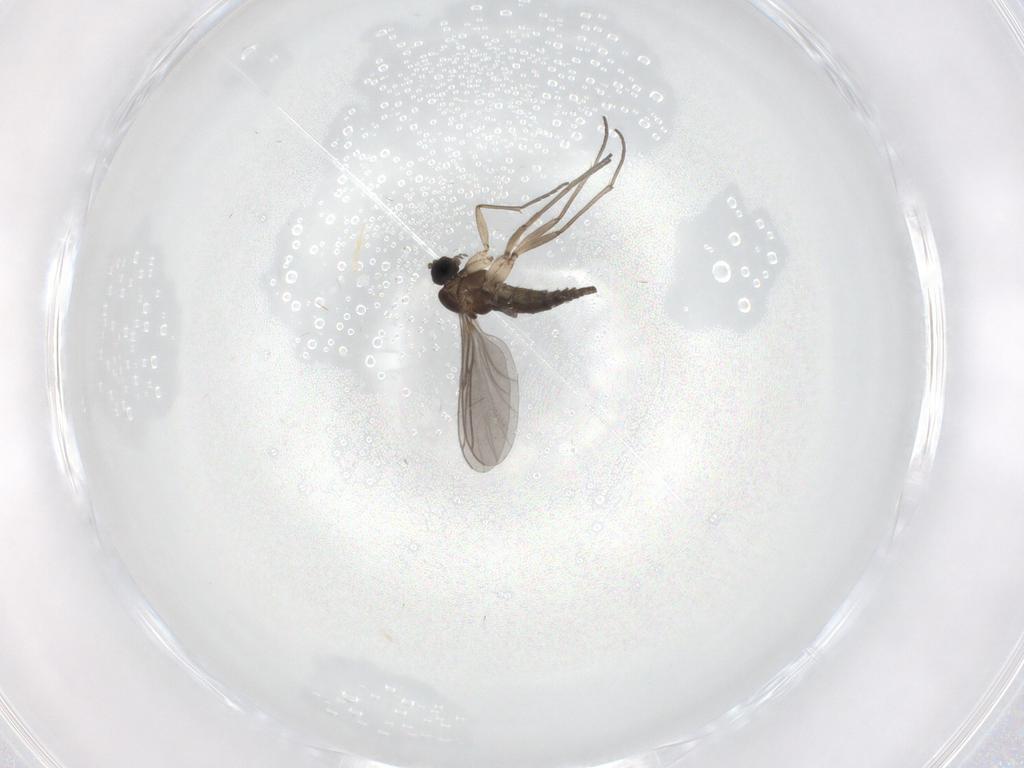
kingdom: Animalia
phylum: Arthropoda
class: Insecta
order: Diptera
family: Sciaridae
